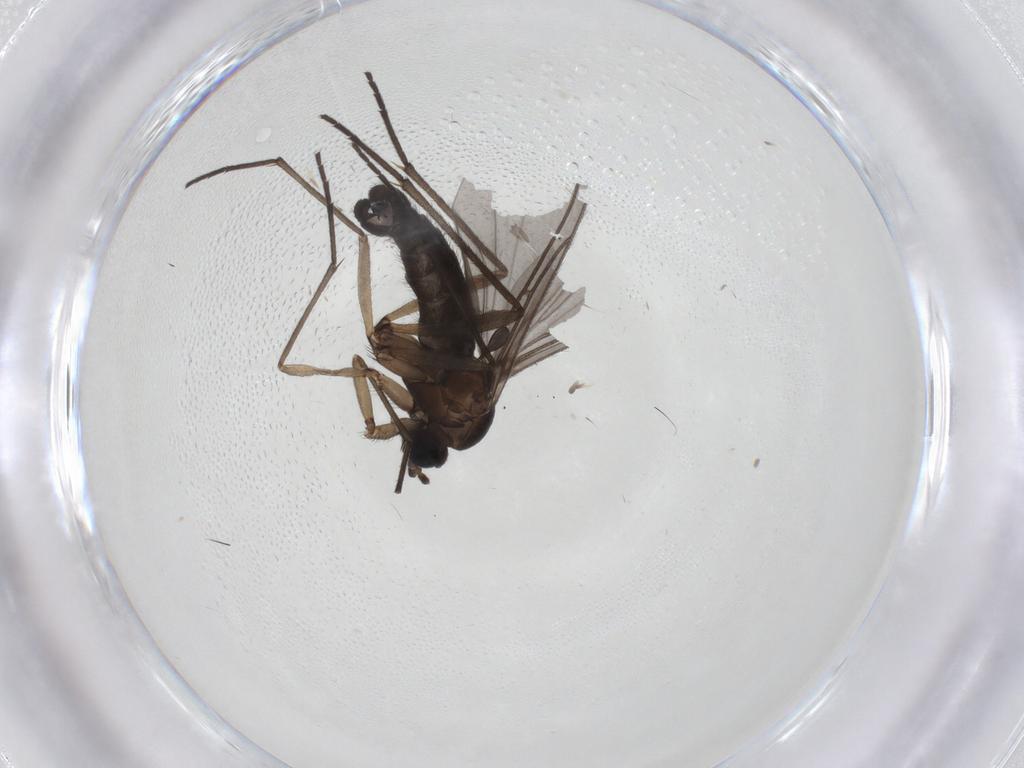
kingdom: Animalia
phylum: Arthropoda
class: Insecta
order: Diptera
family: Sciaridae
